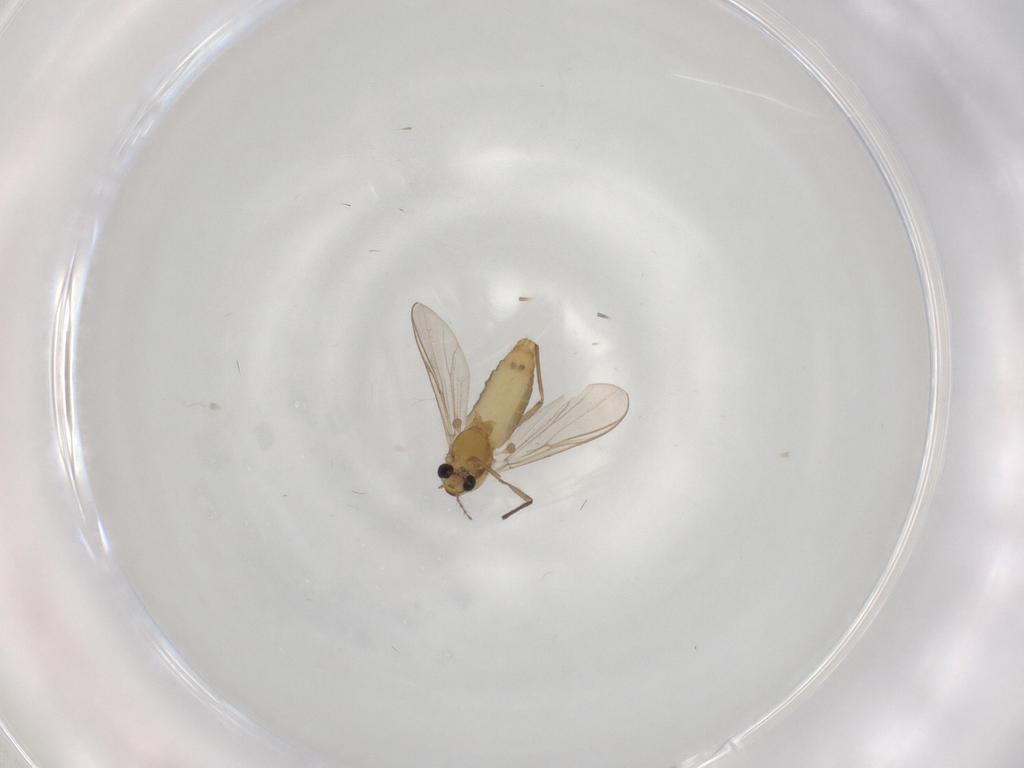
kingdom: Animalia
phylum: Arthropoda
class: Insecta
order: Diptera
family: Chironomidae
